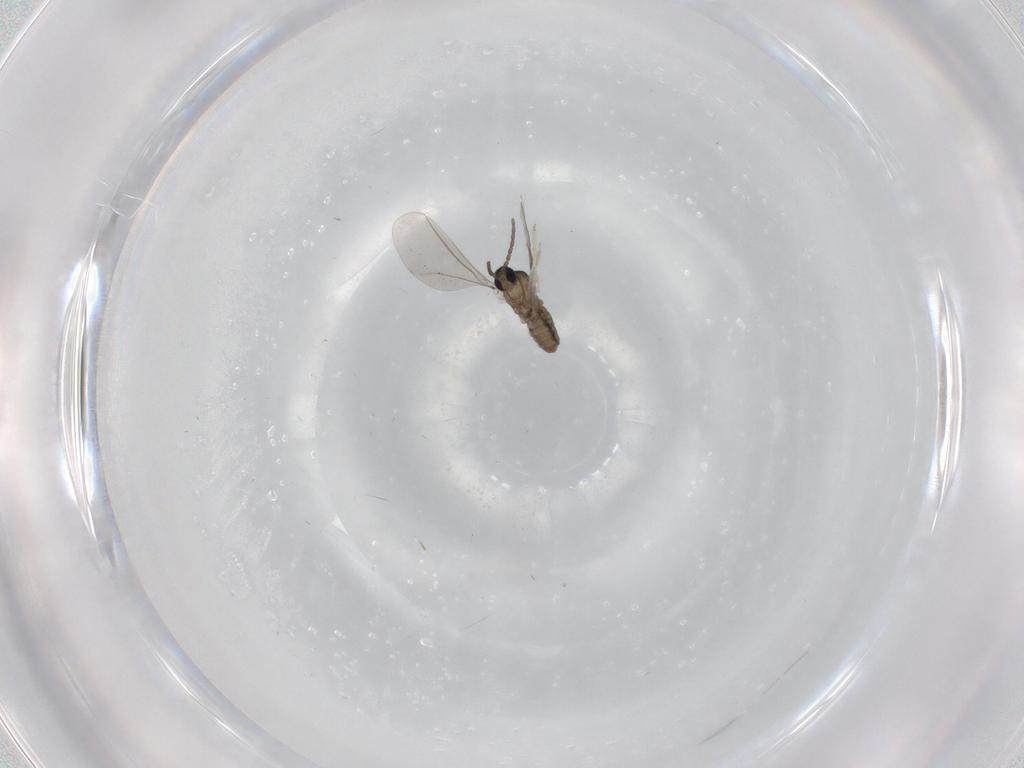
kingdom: Animalia
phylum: Arthropoda
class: Insecta
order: Diptera
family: Cecidomyiidae
